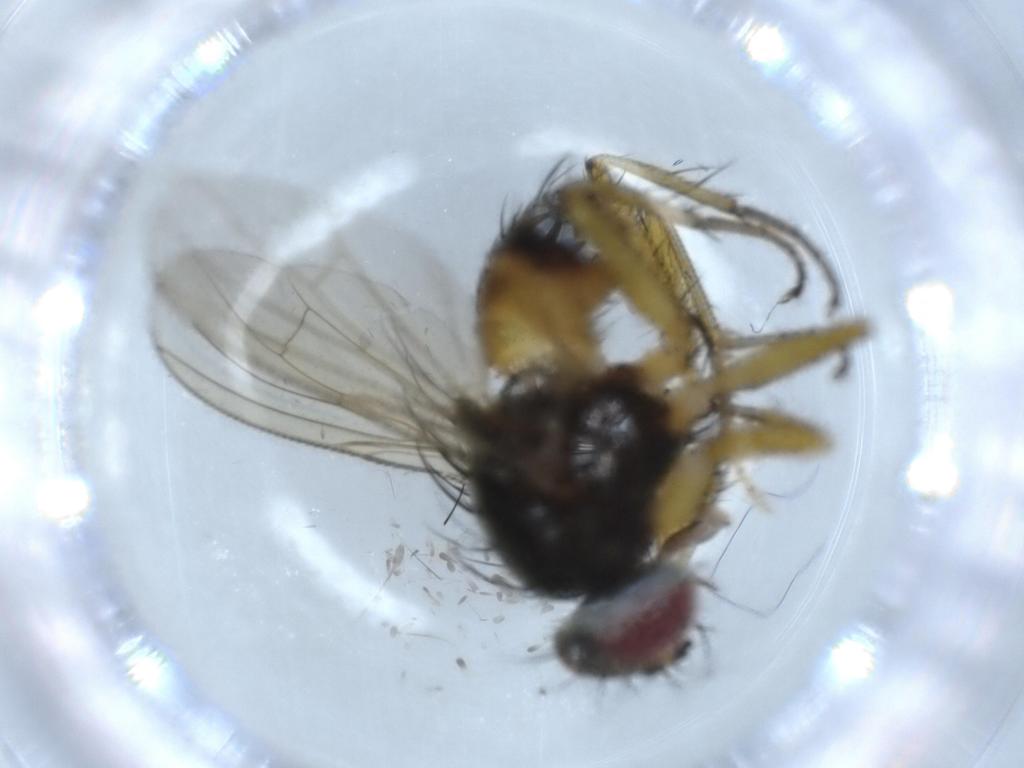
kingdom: Animalia
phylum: Arthropoda
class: Insecta
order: Diptera
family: Muscidae
